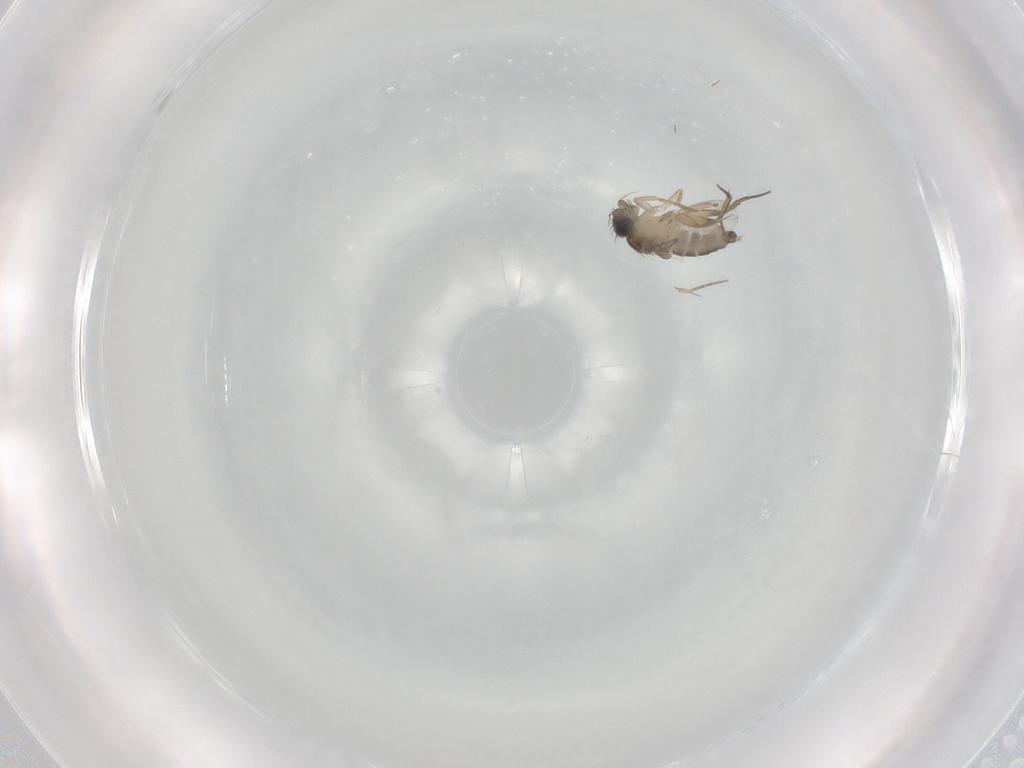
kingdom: Animalia
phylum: Arthropoda
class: Insecta
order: Diptera
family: Phoridae
